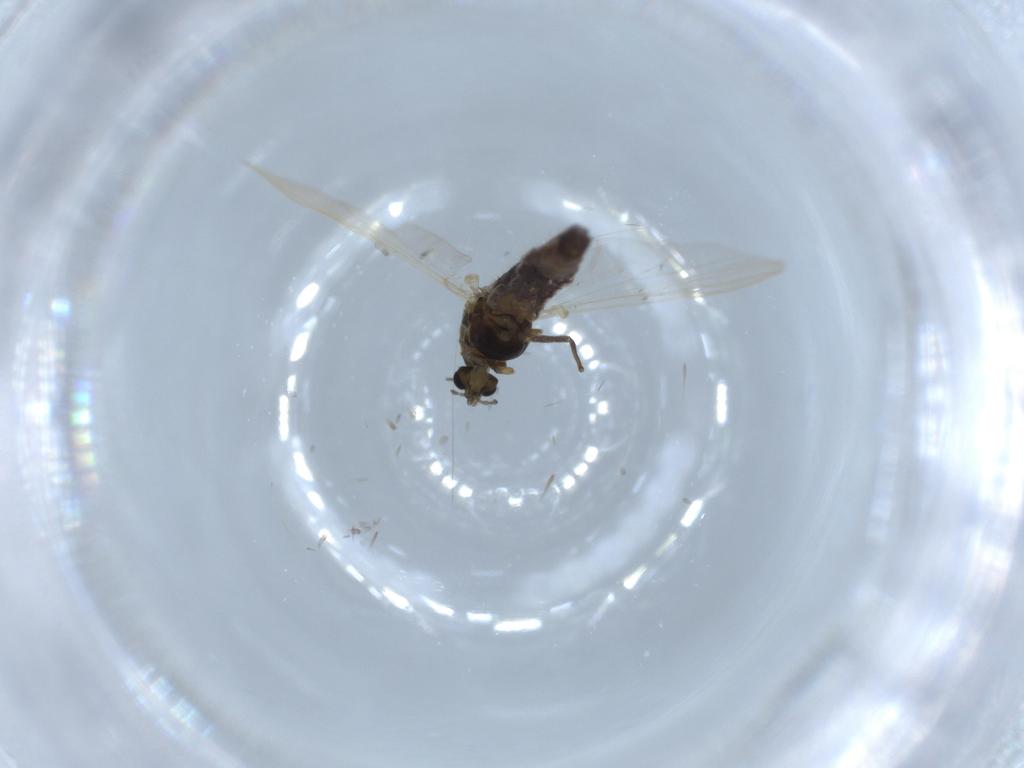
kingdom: Animalia
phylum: Arthropoda
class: Insecta
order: Diptera
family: Chironomidae
